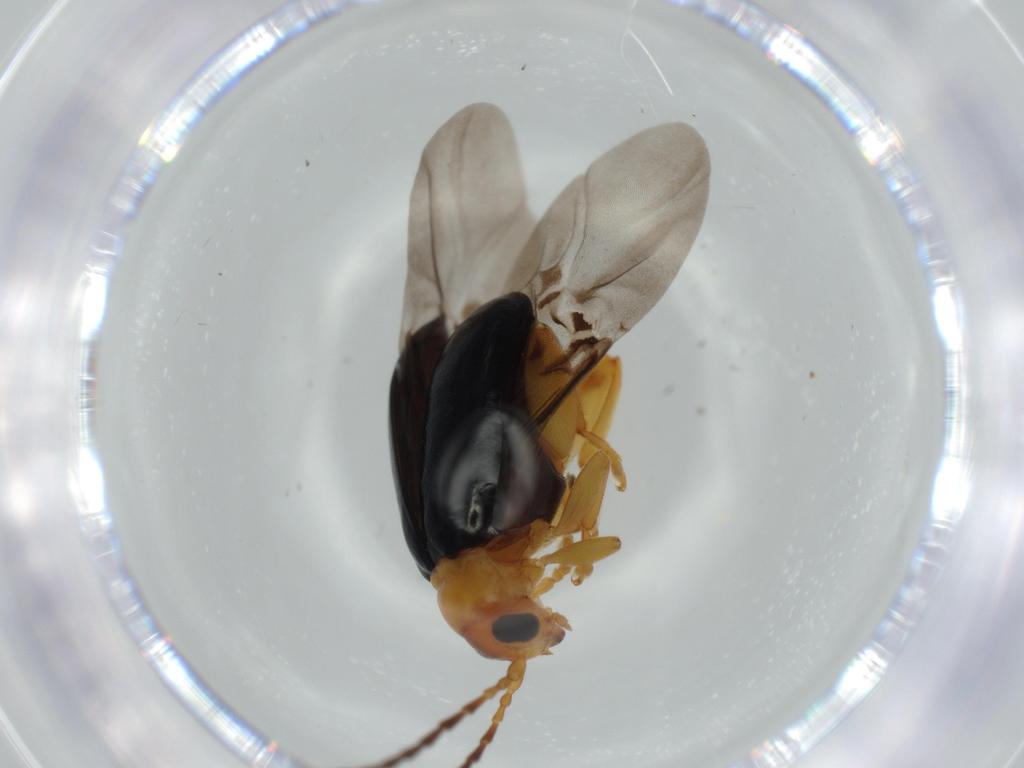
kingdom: Animalia
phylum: Arthropoda
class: Insecta
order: Coleoptera
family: Chrysomelidae
